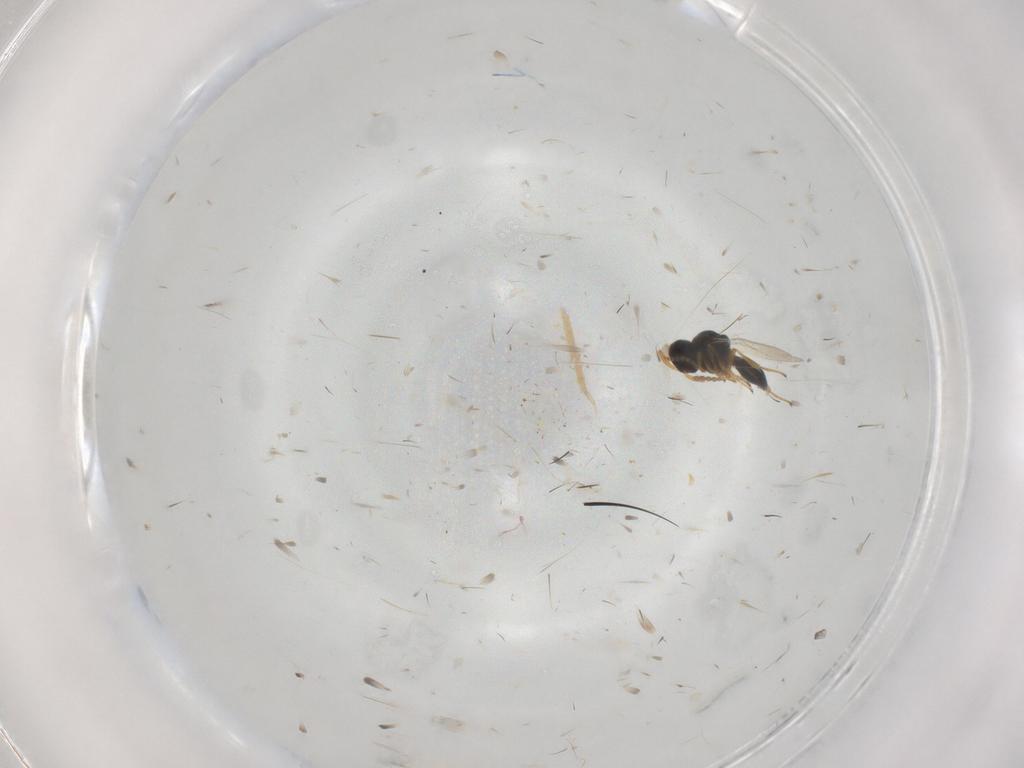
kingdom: Animalia
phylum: Arthropoda
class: Insecta
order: Hymenoptera
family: Platygastridae
